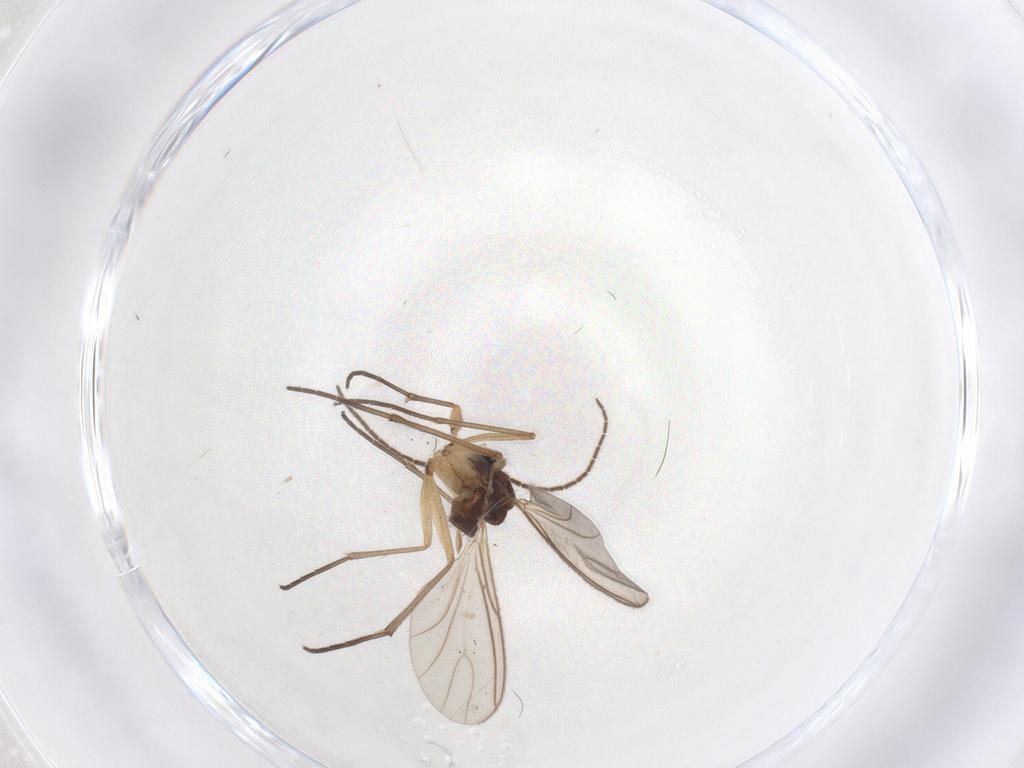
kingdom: Animalia
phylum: Arthropoda
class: Insecta
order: Diptera
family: Sciaridae
